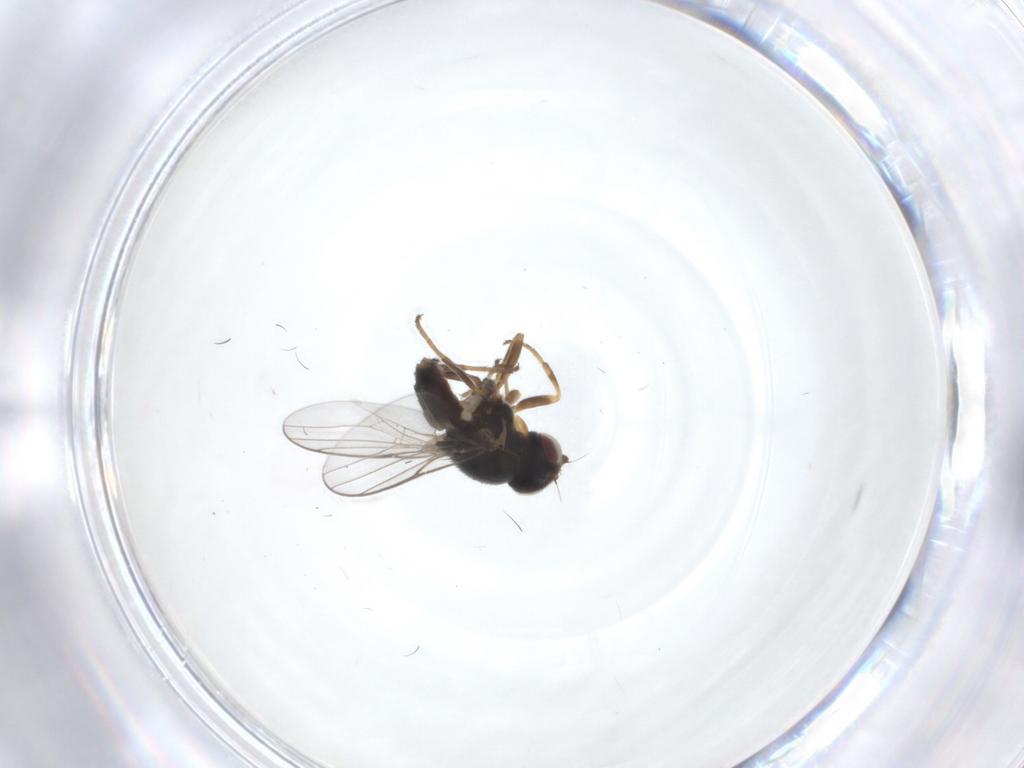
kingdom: Animalia
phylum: Arthropoda
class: Insecta
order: Diptera
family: Chloropidae
